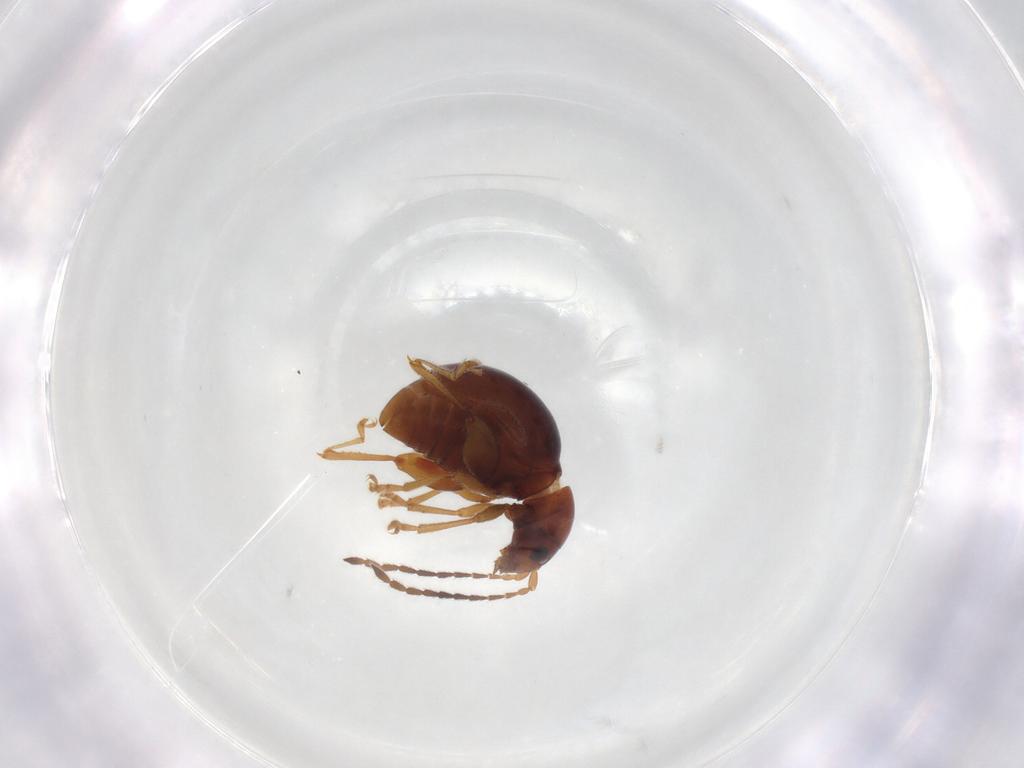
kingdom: Animalia
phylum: Arthropoda
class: Insecta
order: Coleoptera
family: Chrysomelidae
